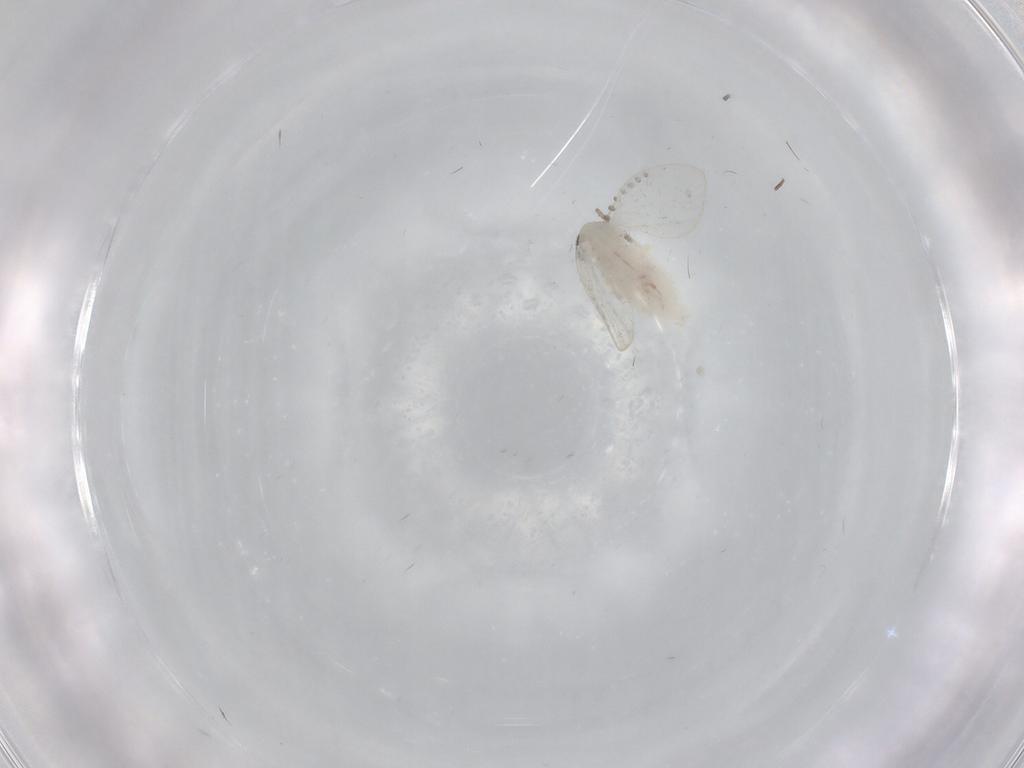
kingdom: Animalia
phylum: Arthropoda
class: Insecta
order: Diptera
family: Psychodidae
